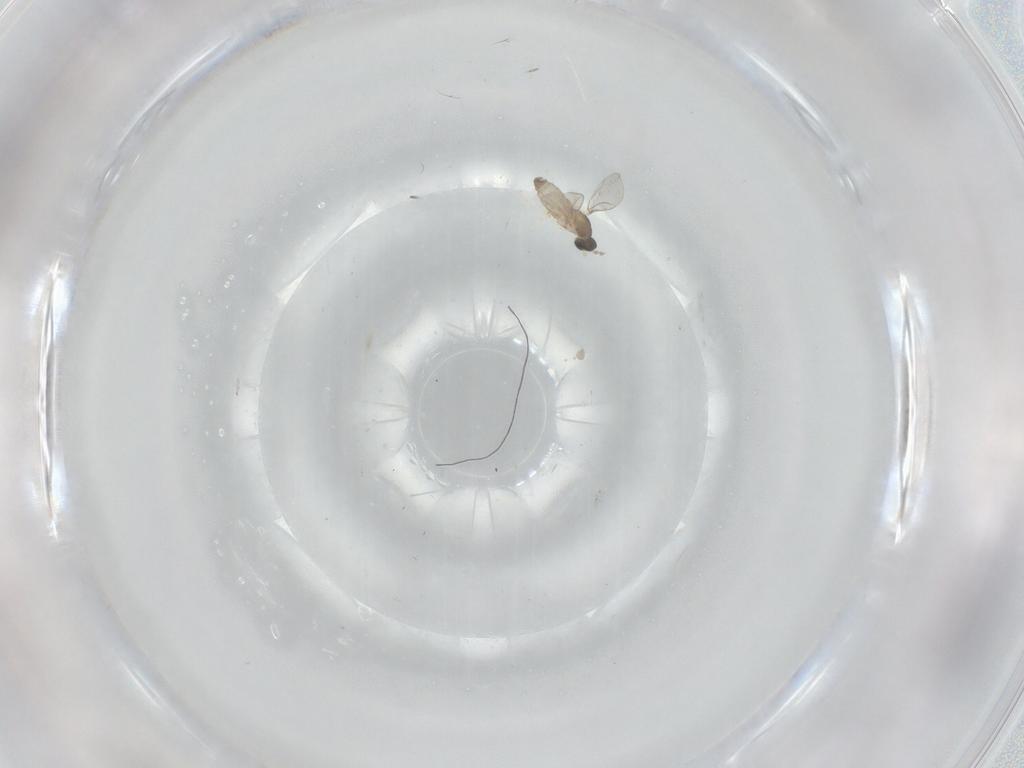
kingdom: Animalia
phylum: Arthropoda
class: Insecta
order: Diptera
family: Cecidomyiidae
